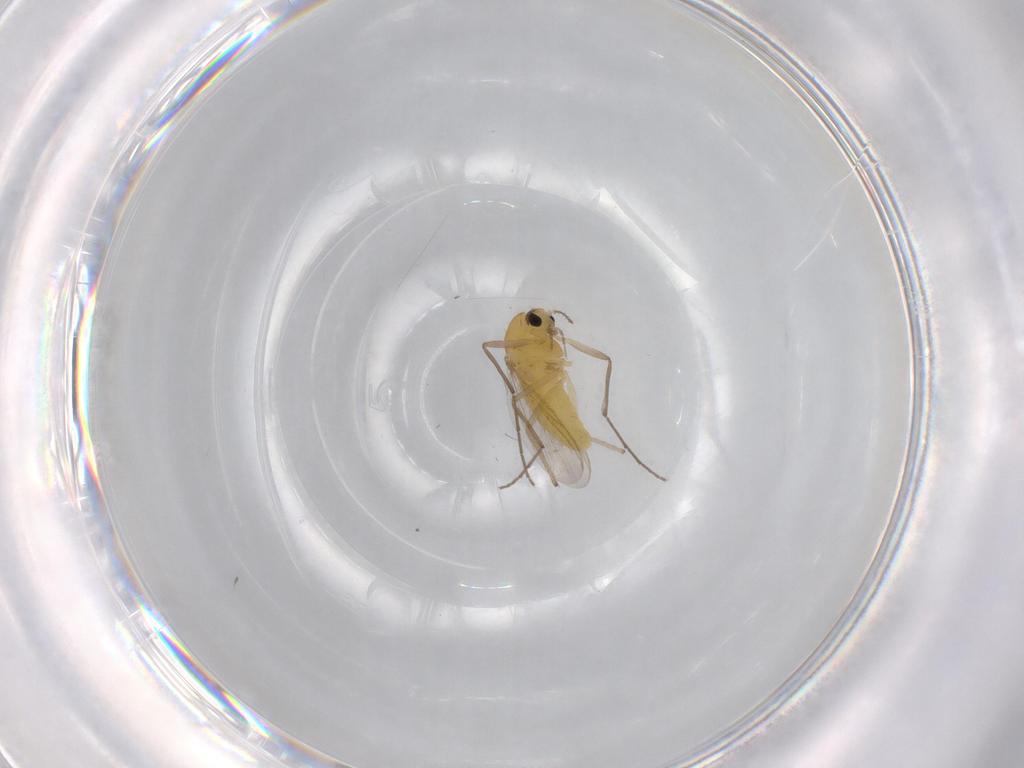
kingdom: Animalia
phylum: Arthropoda
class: Insecta
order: Diptera
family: Chironomidae
